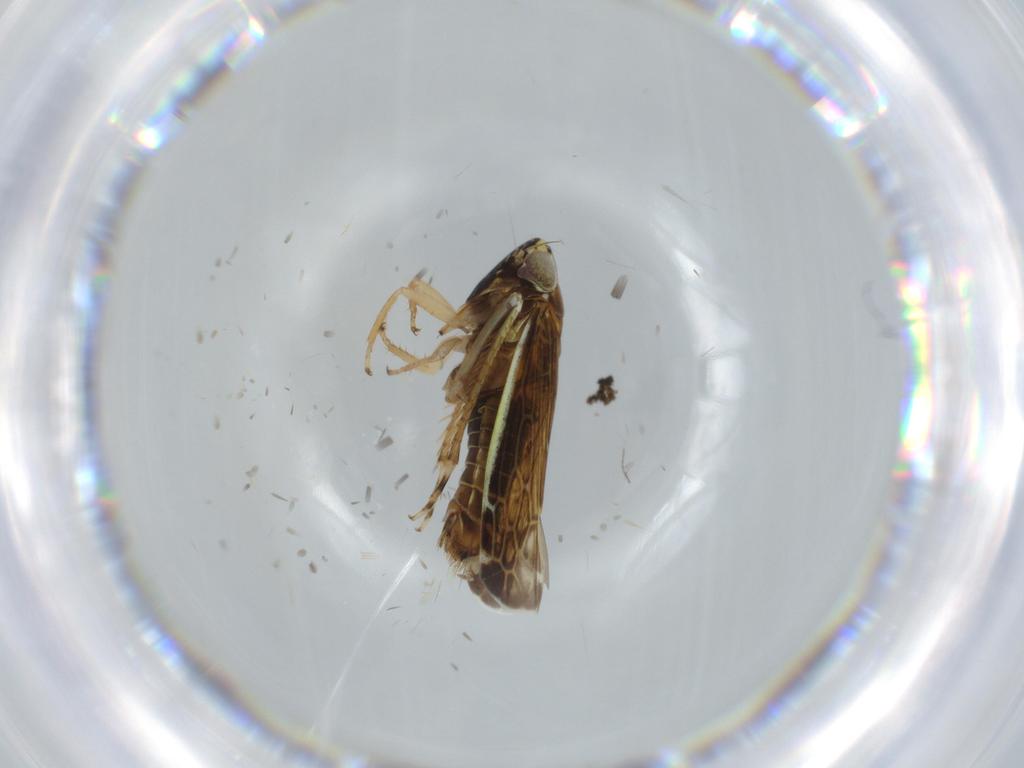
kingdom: Animalia
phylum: Arthropoda
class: Insecta
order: Hemiptera
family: Cicadellidae
